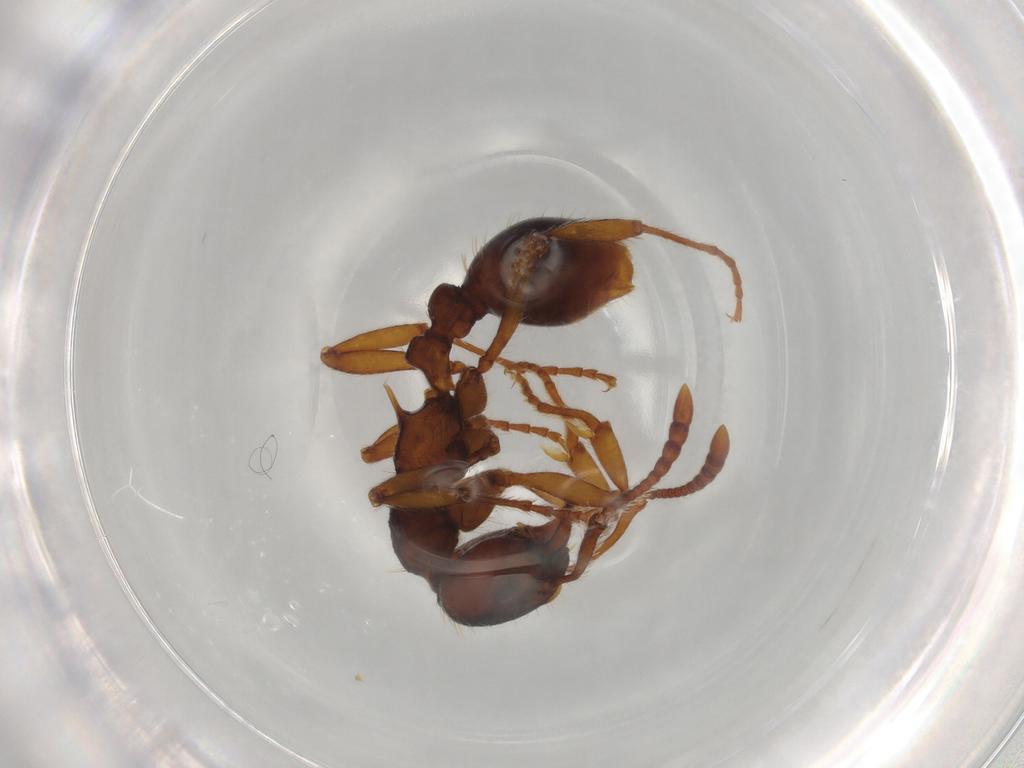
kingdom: Animalia
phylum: Arthropoda
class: Insecta
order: Hymenoptera
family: Formicidae
